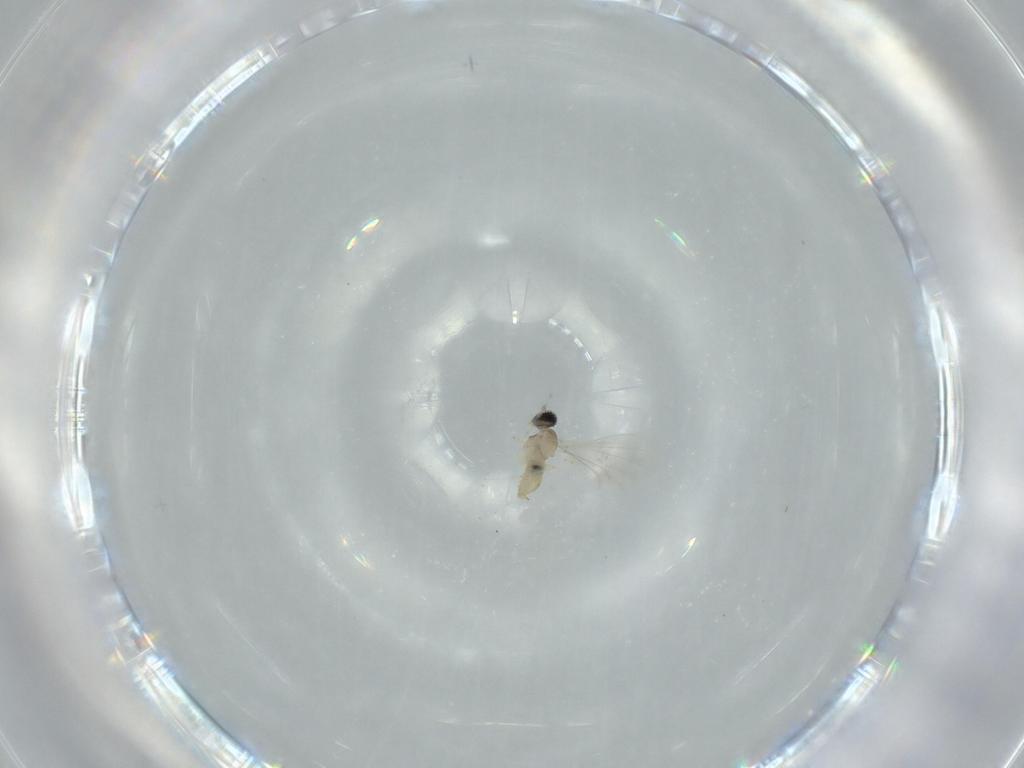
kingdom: Animalia
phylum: Arthropoda
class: Insecta
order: Diptera
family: Cecidomyiidae
